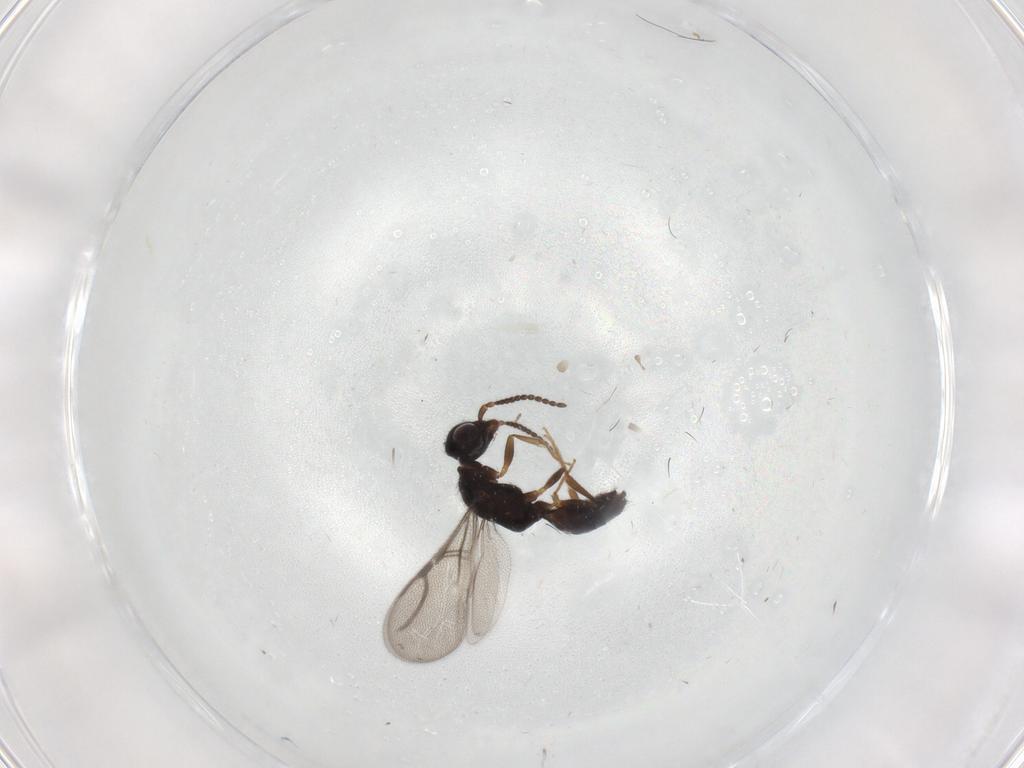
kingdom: Animalia
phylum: Arthropoda
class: Insecta
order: Hymenoptera
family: Bethylidae
